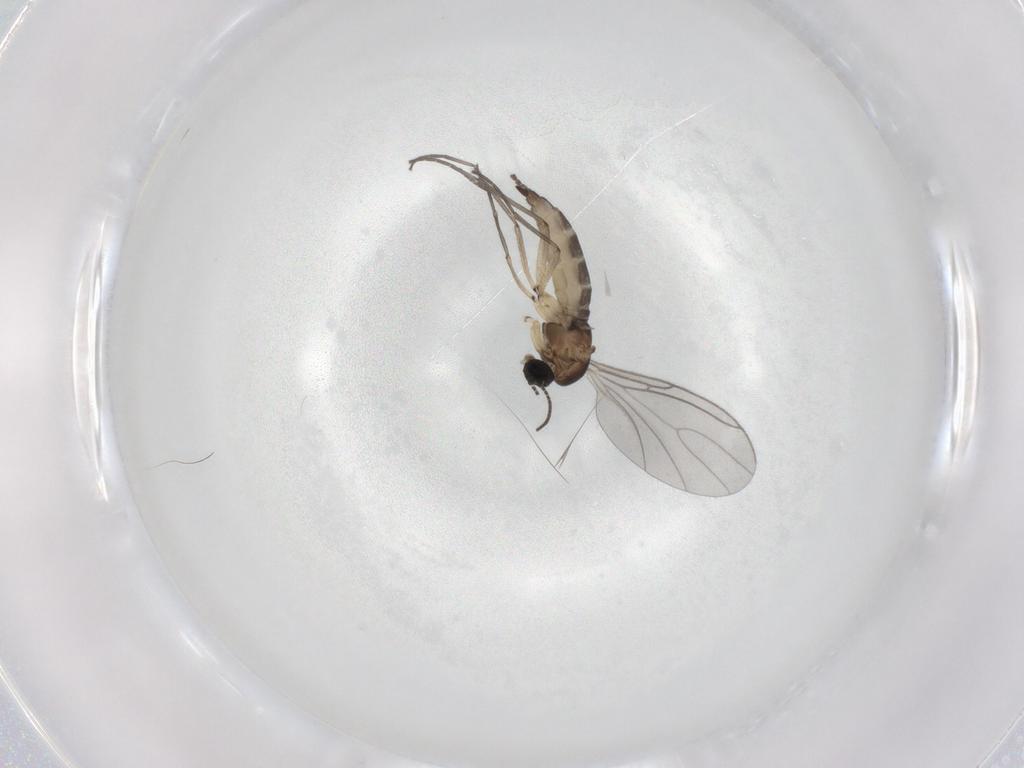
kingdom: Animalia
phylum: Arthropoda
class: Insecta
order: Diptera
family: Sciaridae
